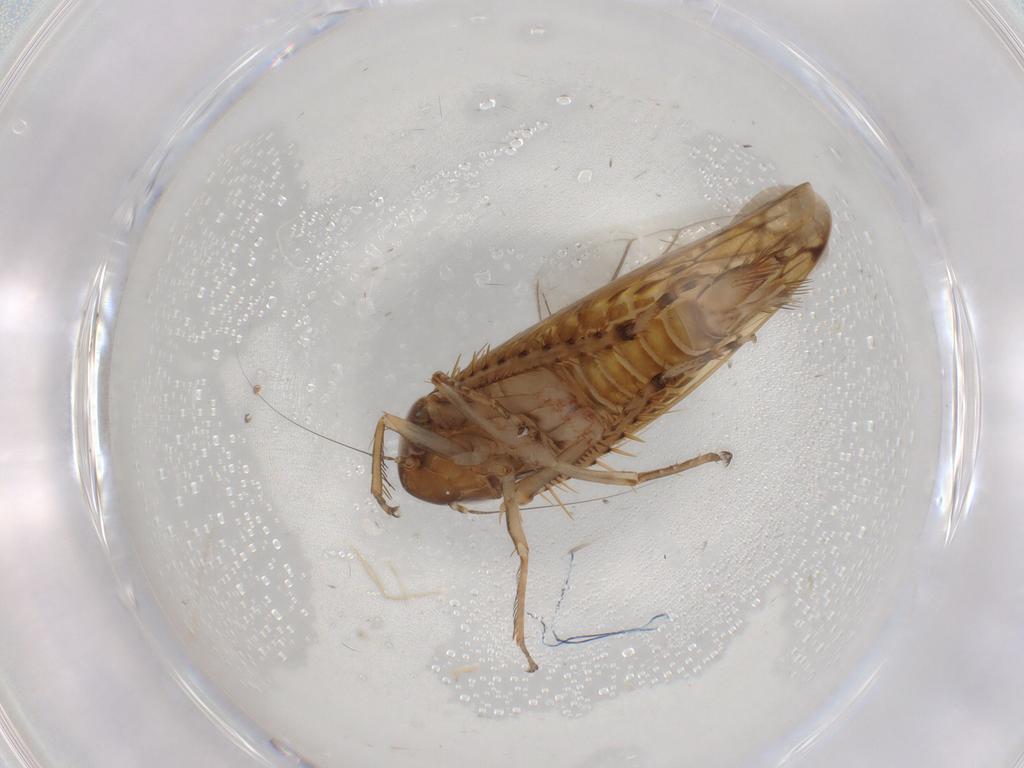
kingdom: Animalia
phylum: Arthropoda
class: Insecta
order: Hemiptera
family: Cicadellidae
